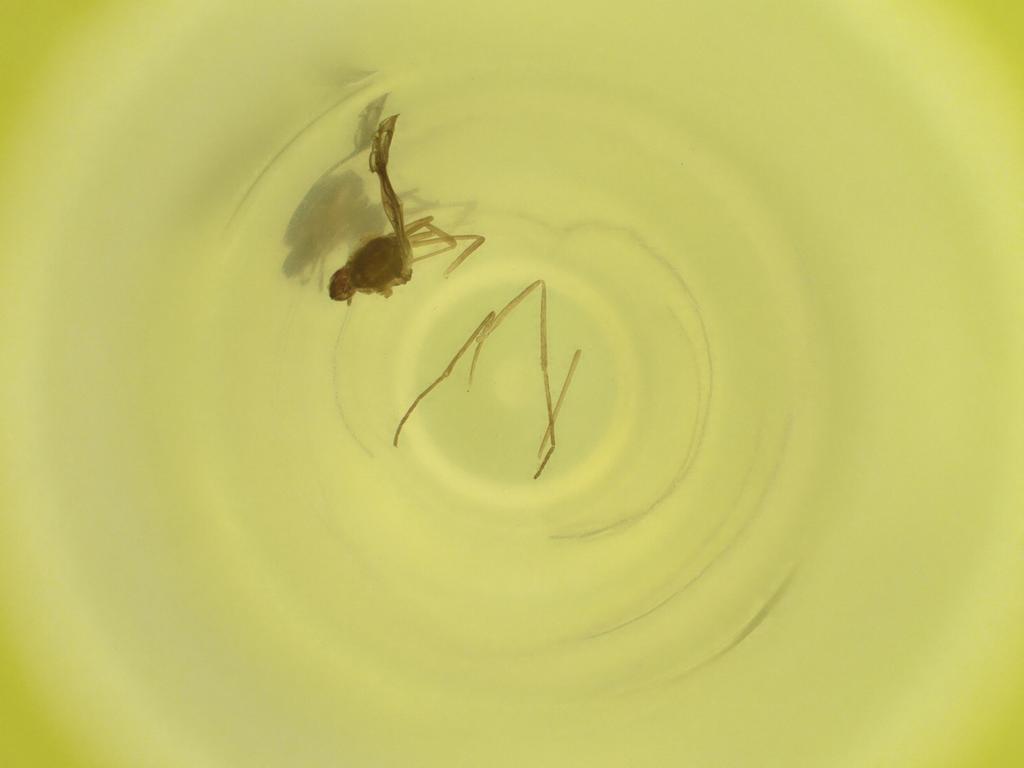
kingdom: Animalia
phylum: Arthropoda
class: Insecta
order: Diptera
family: Cecidomyiidae
